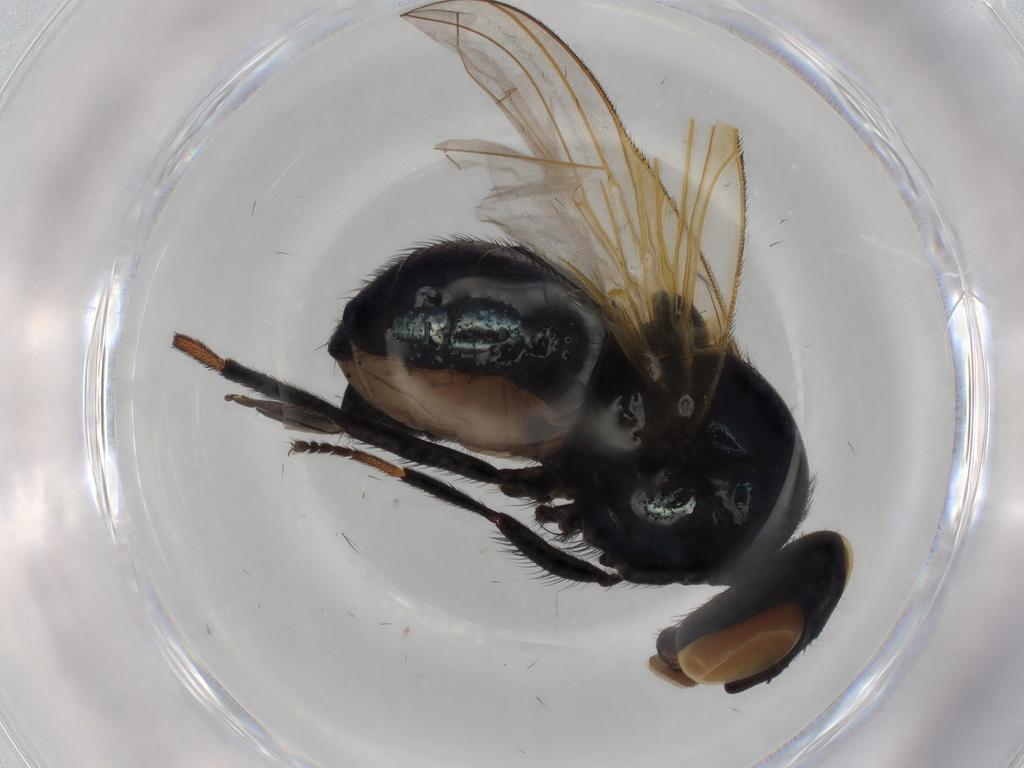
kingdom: Animalia
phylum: Arthropoda
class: Insecta
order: Diptera
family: Lonchaeidae
